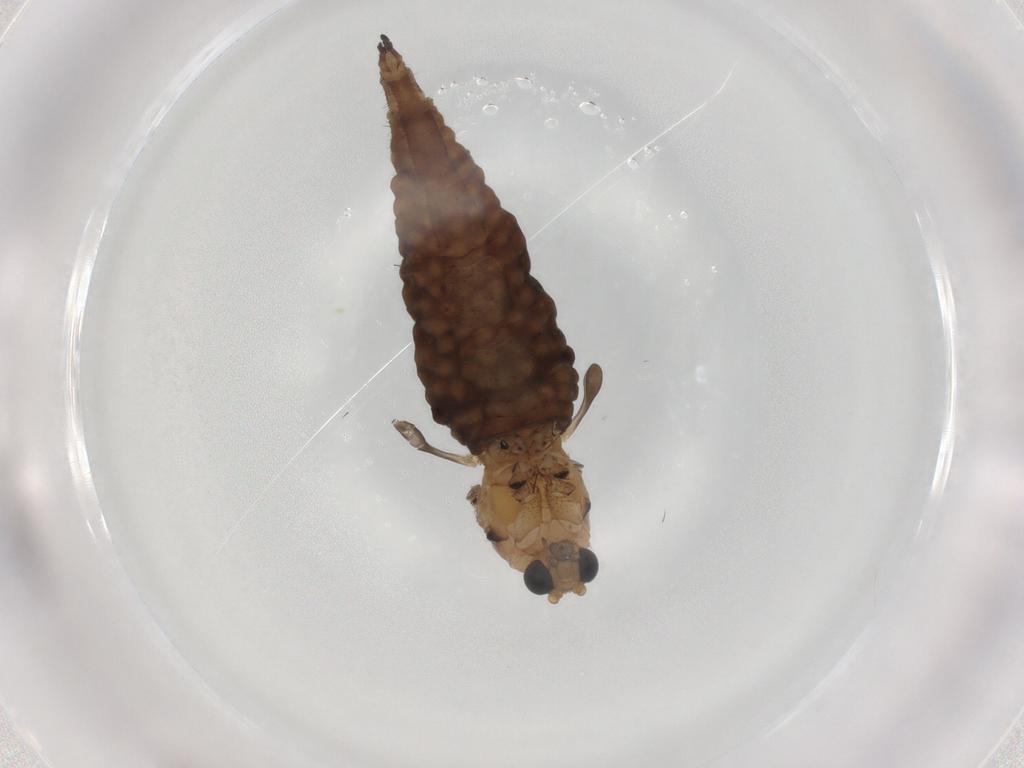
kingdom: Animalia
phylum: Arthropoda
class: Insecta
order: Diptera
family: Sciaridae
